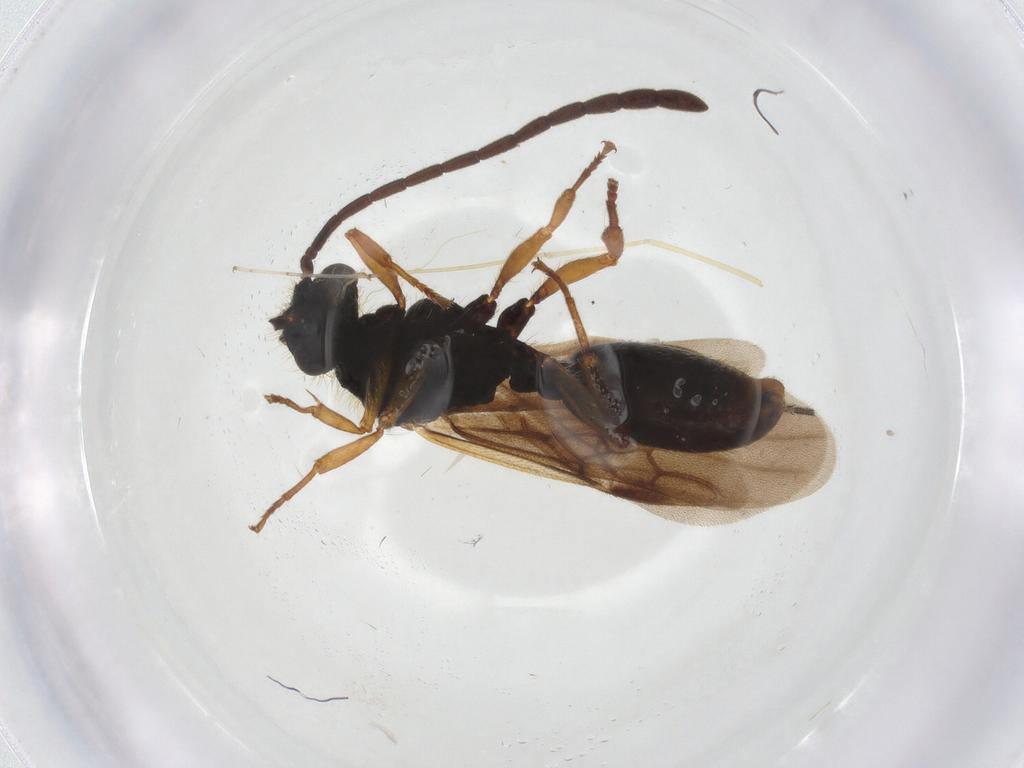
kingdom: Animalia
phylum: Arthropoda
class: Insecta
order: Hymenoptera
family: Formicidae
